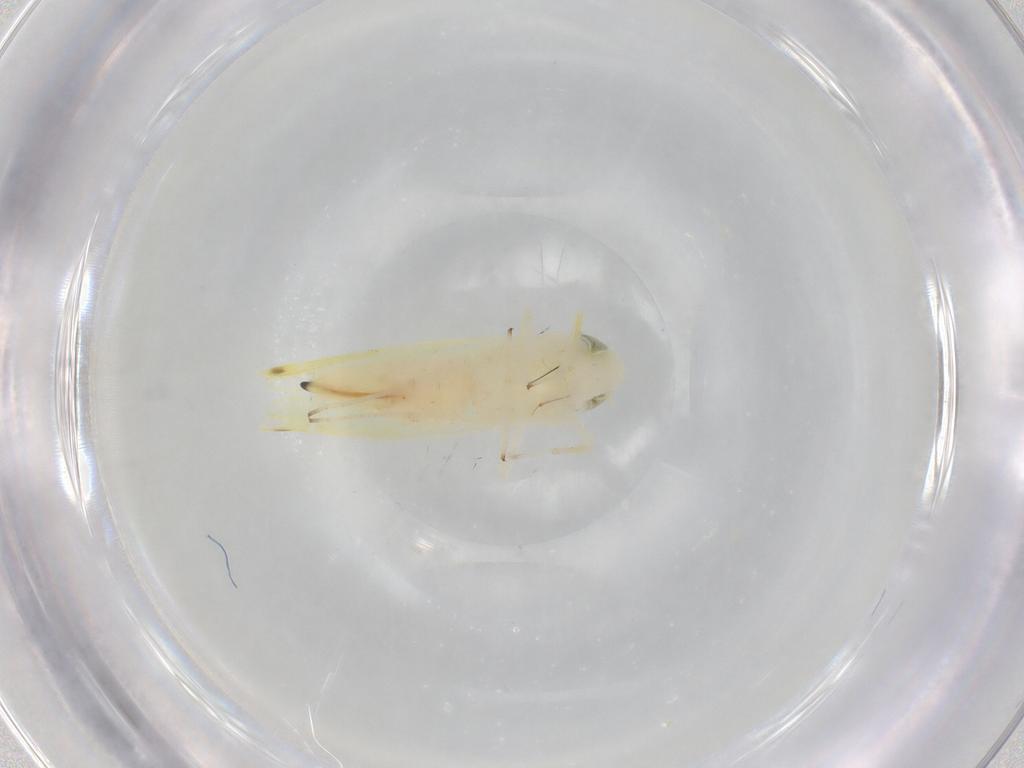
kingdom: Animalia
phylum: Arthropoda
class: Insecta
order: Hemiptera
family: Cicadellidae
